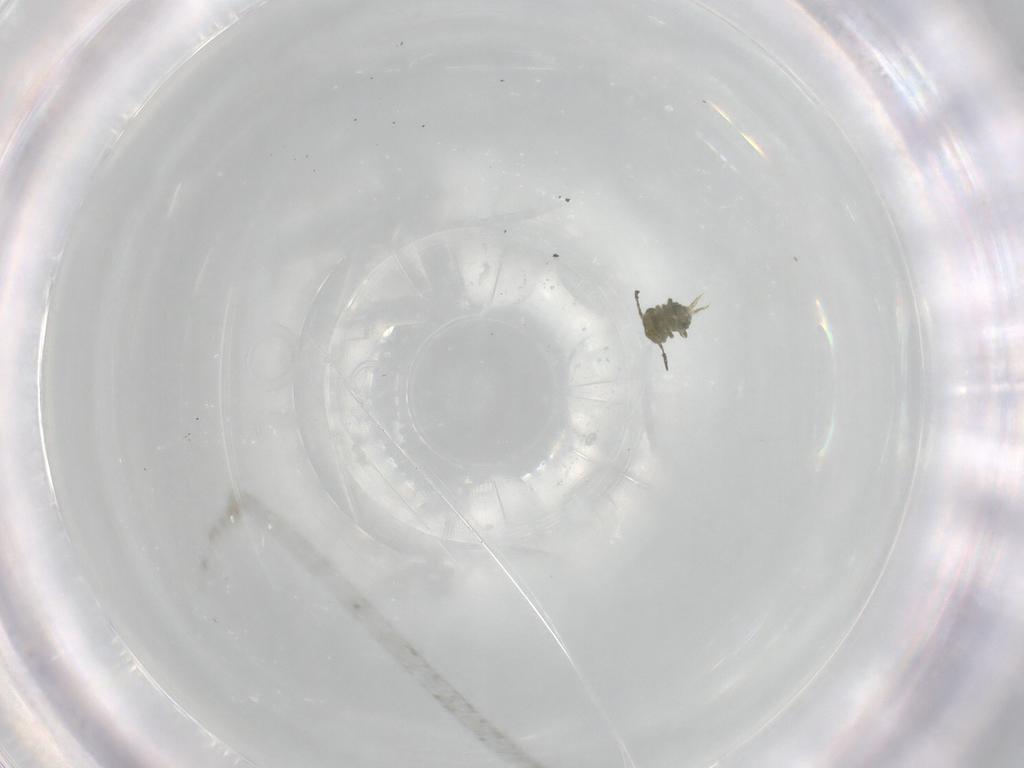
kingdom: Animalia
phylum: Arthropoda
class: Collembola
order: Symphypleona
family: Sminthuridae
